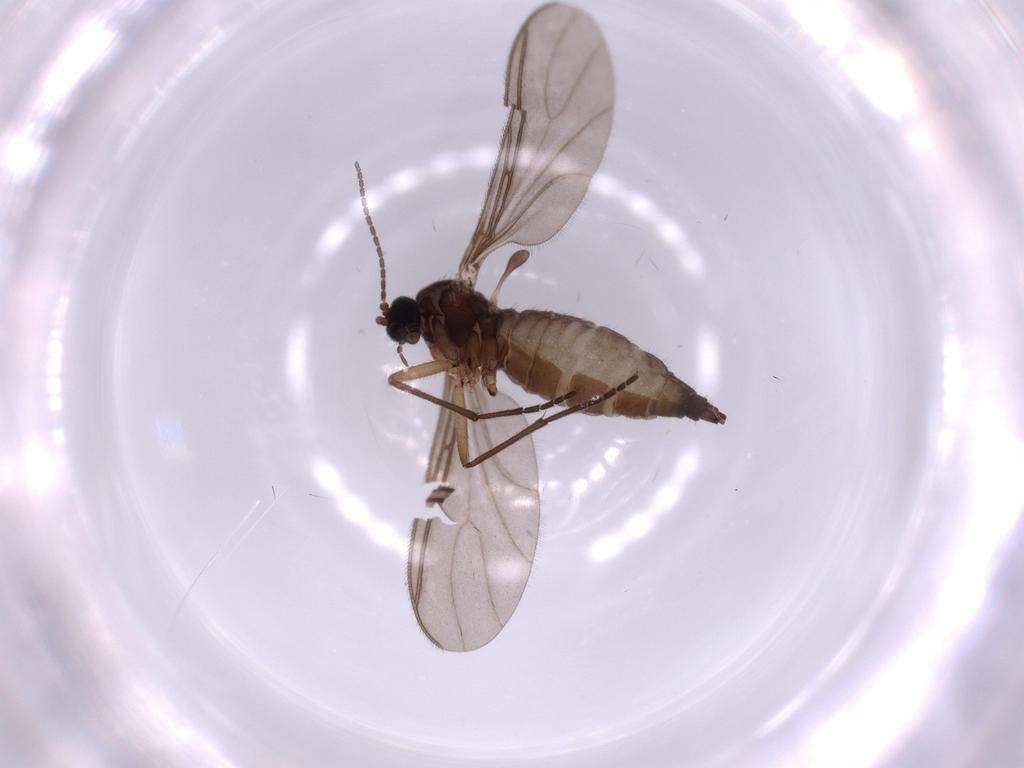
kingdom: Animalia
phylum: Arthropoda
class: Insecta
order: Diptera
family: Sciaridae
